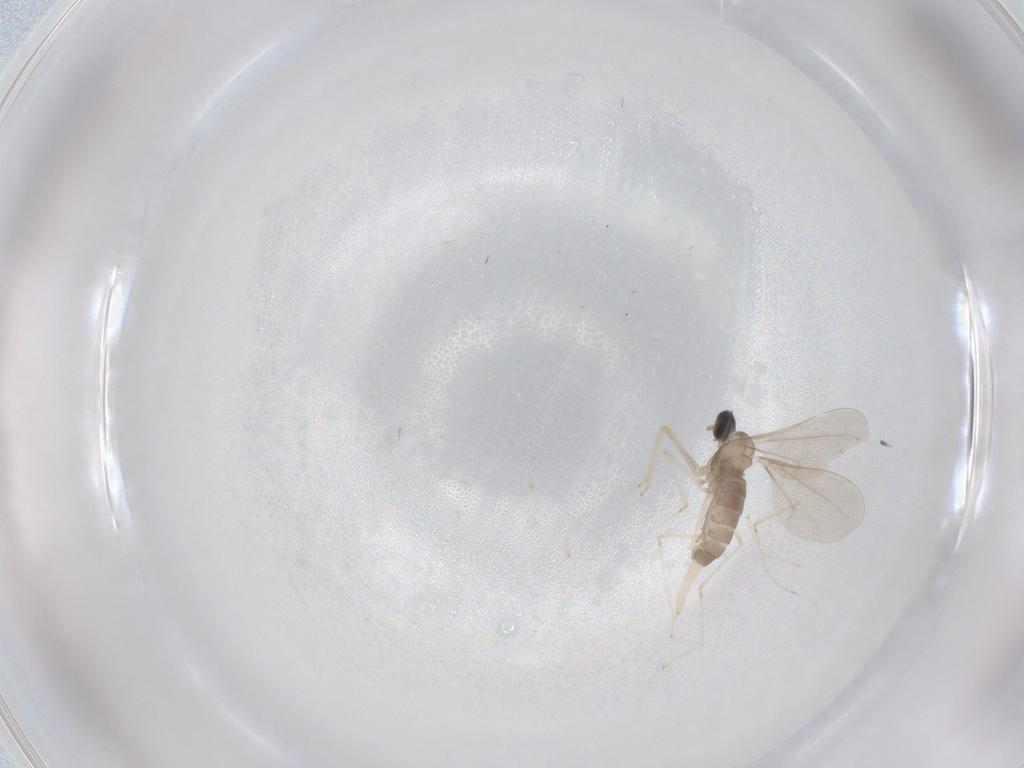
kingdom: Animalia
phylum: Arthropoda
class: Insecta
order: Diptera
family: Cecidomyiidae
